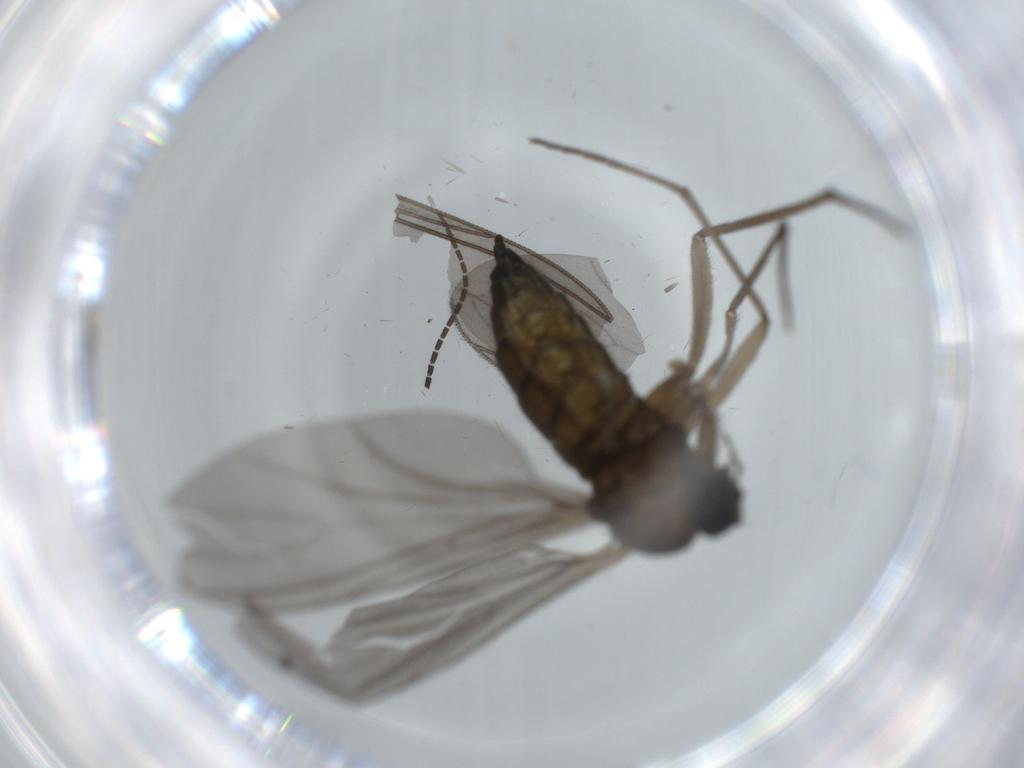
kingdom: Animalia
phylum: Arthropoda
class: Insecta
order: Diptera
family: Sciaridae
